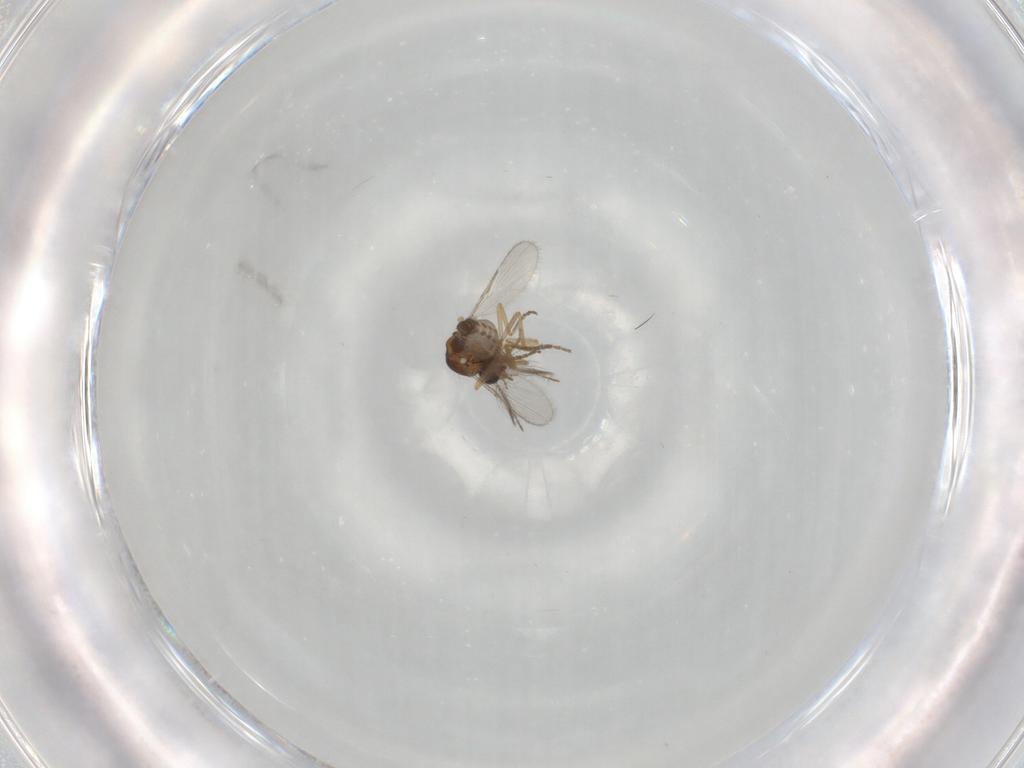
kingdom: Animalia
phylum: Arthropoda
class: Insecta
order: Diptera
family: Ceratopogonidae
